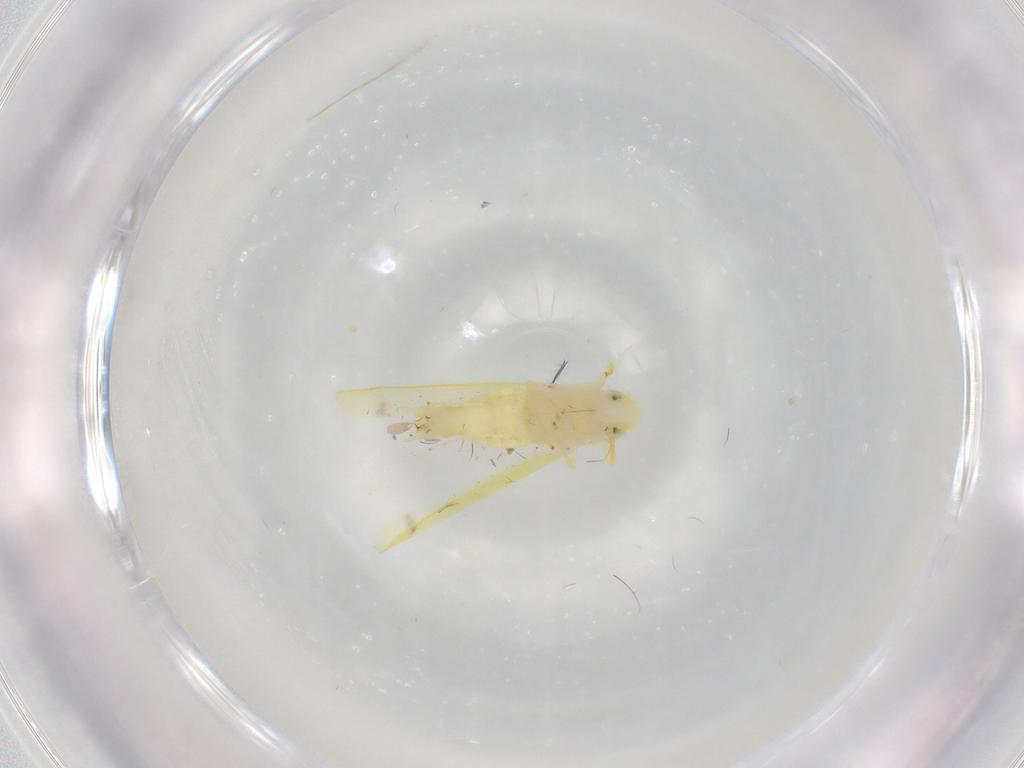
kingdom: Animalia
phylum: Arthropoda
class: Insecta
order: Hemiptera
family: Cicadellidae
